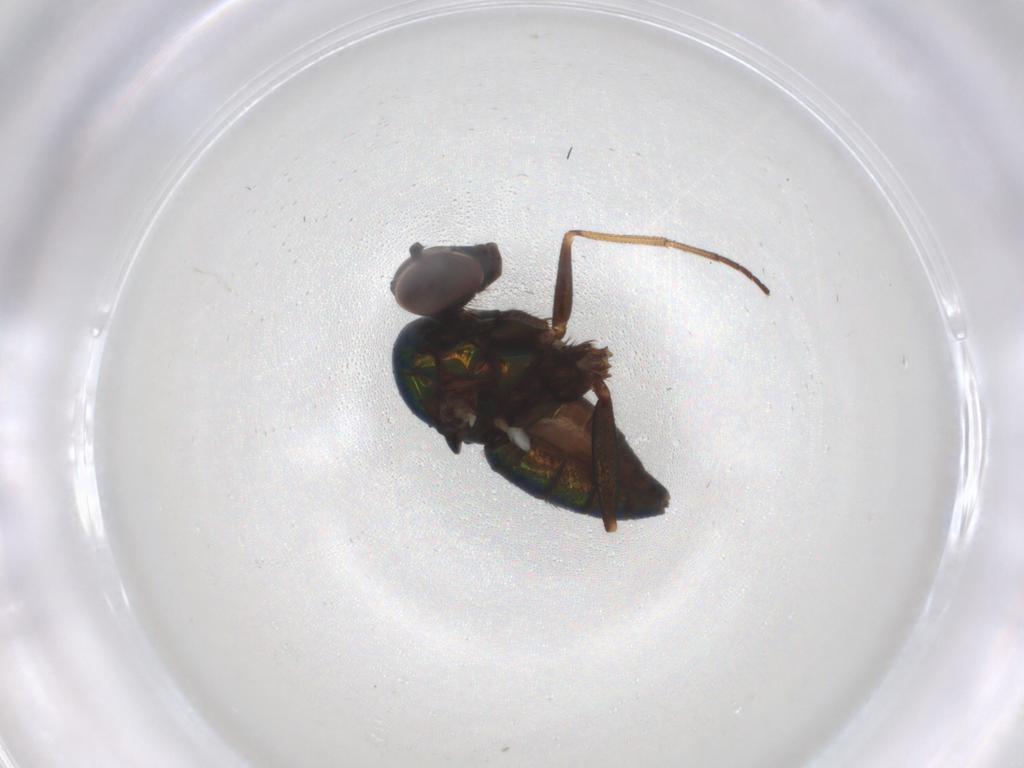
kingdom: Animalia
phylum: Arthropoda
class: Insecta
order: Diptera
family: Dolichopodidae
